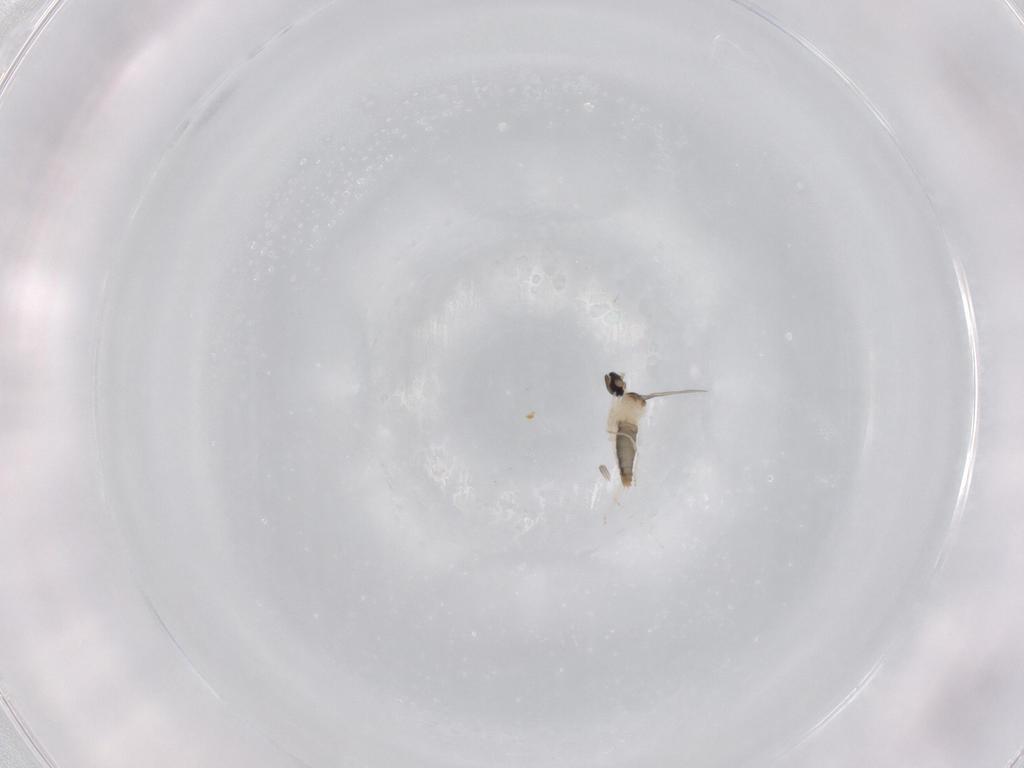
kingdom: Animalia
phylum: Arthropoda
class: Insecta
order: Diptera
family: Cecidomyiidae
